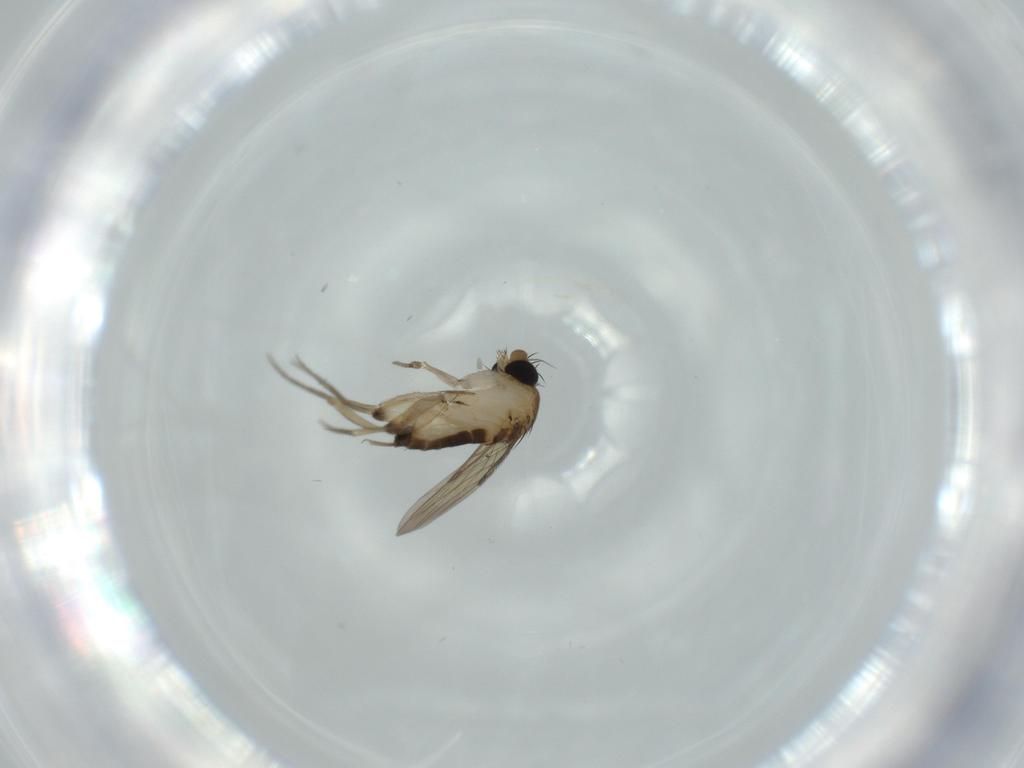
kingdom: Animalia
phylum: Arthropoda
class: Insecta
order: Diptera
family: Phoridae
